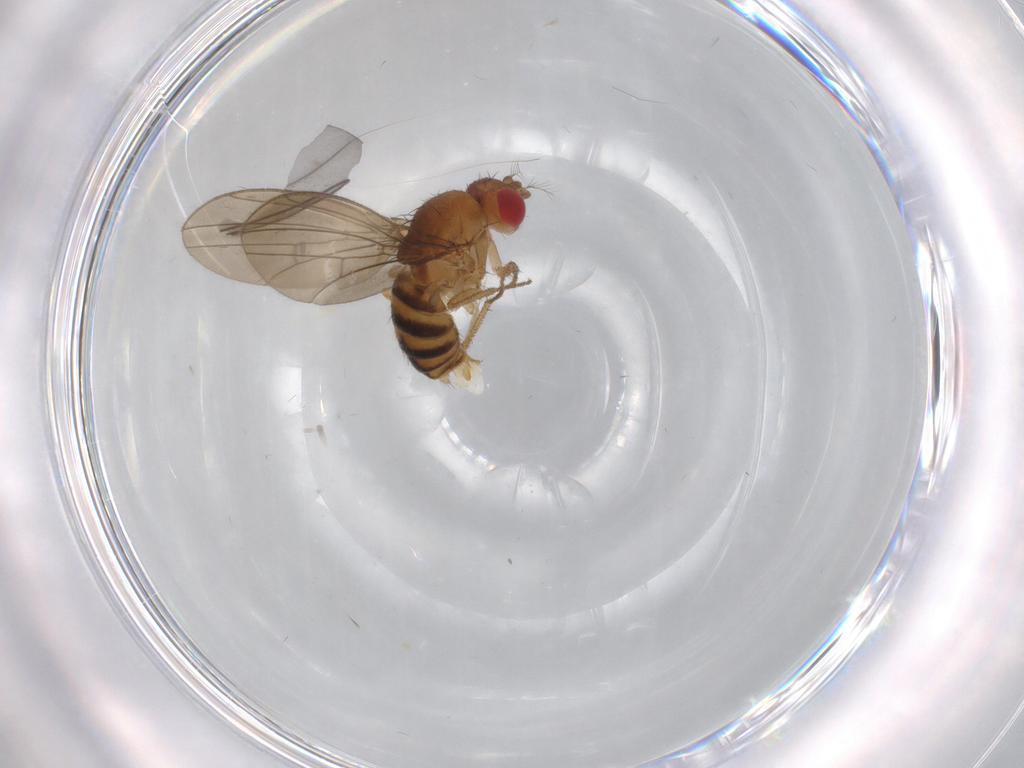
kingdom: Animalia
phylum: Arthropoda
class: Insecta
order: Diptera
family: Drosophilidae
